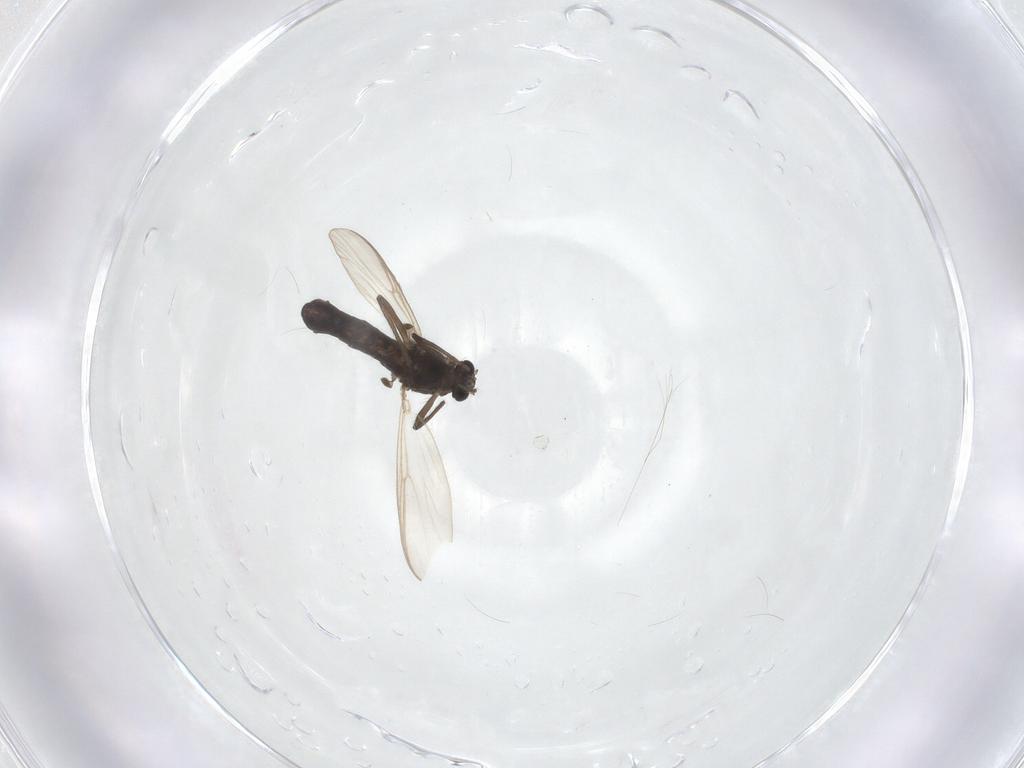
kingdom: Animalia
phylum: Arthropoda
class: Insecta
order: Diptera
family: Chironomidae
